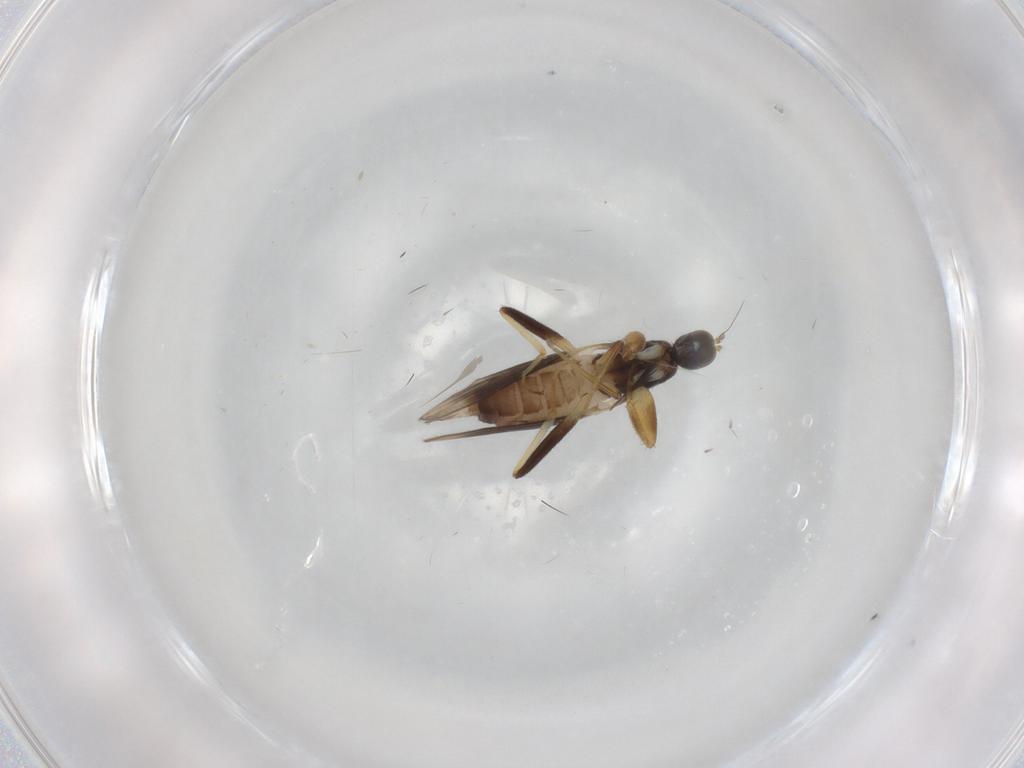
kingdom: Animalia
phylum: Arthropoda
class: Insecta
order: Diptera
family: Hybotidae
